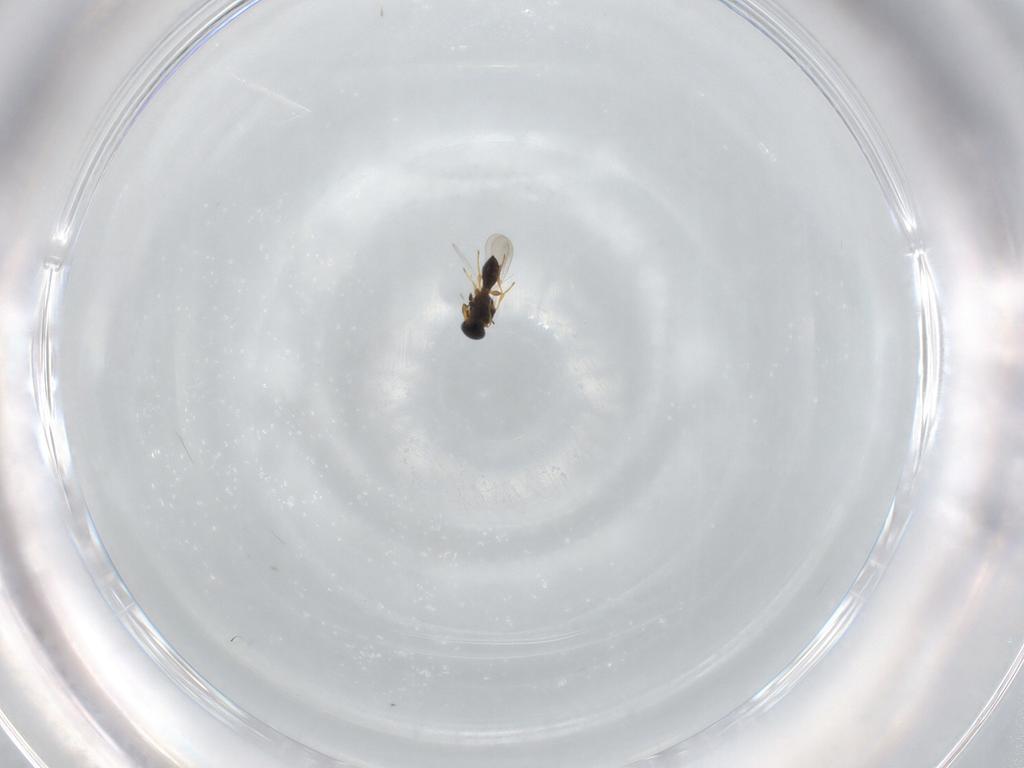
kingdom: Animalia
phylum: Arthropoda
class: Insecta
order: Hymenoptera
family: Platygastridae
